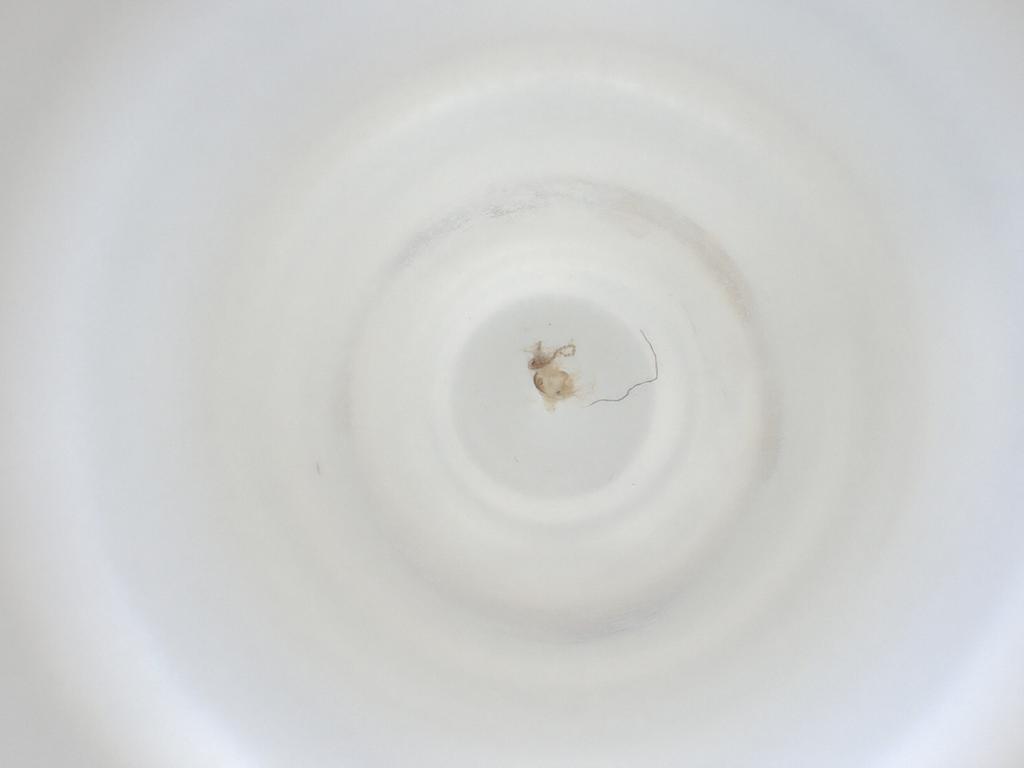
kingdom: Animalia
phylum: Arthropoda
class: Insecta
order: Diptera
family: Cecidomyiidae
